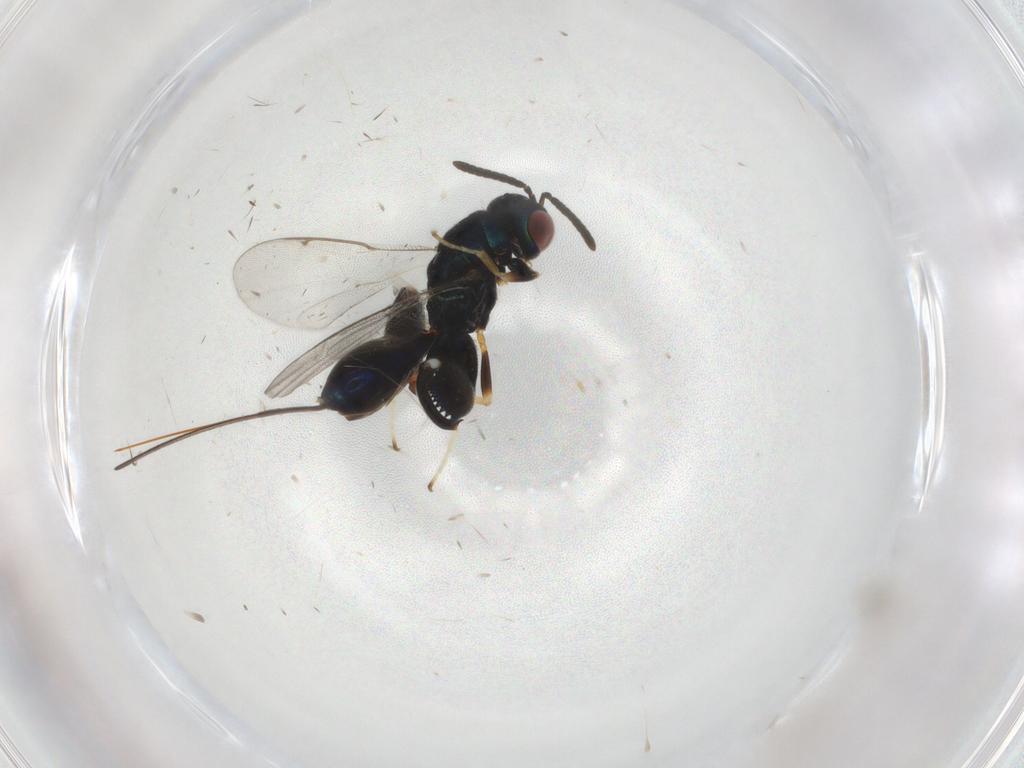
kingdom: Animalia
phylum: Arthropoda
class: Insecta
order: Hymenoptera
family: Torymidae
